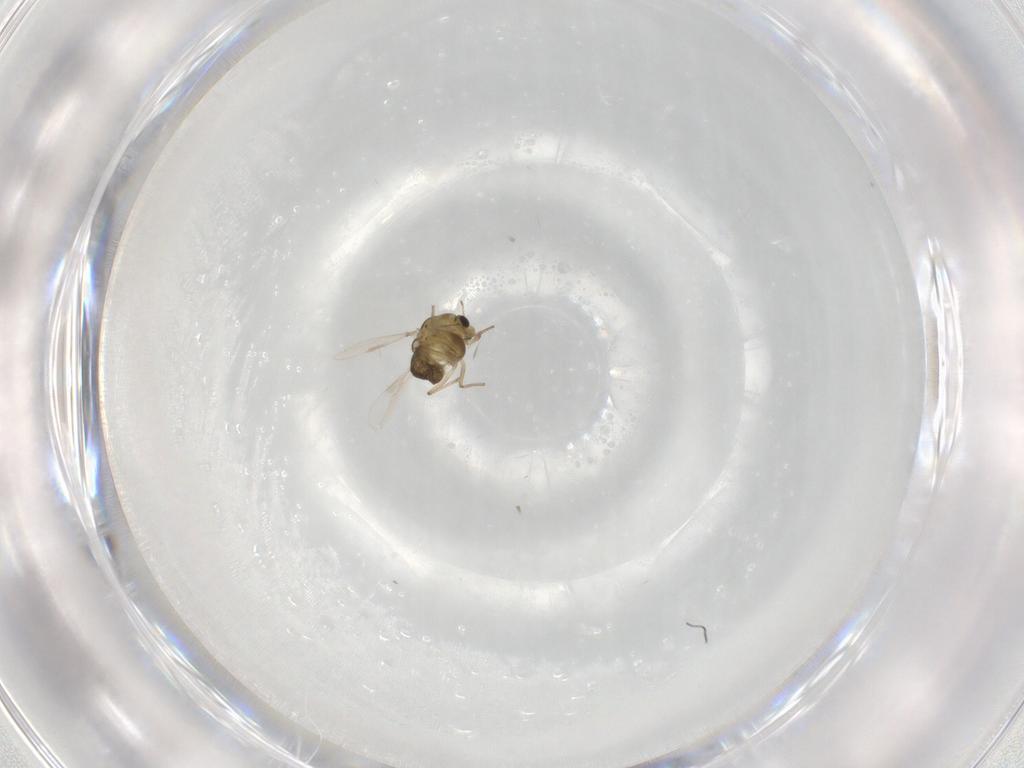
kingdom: Animalia
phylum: Arthropoda
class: Insecta
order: Diptera
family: Chironomidae
